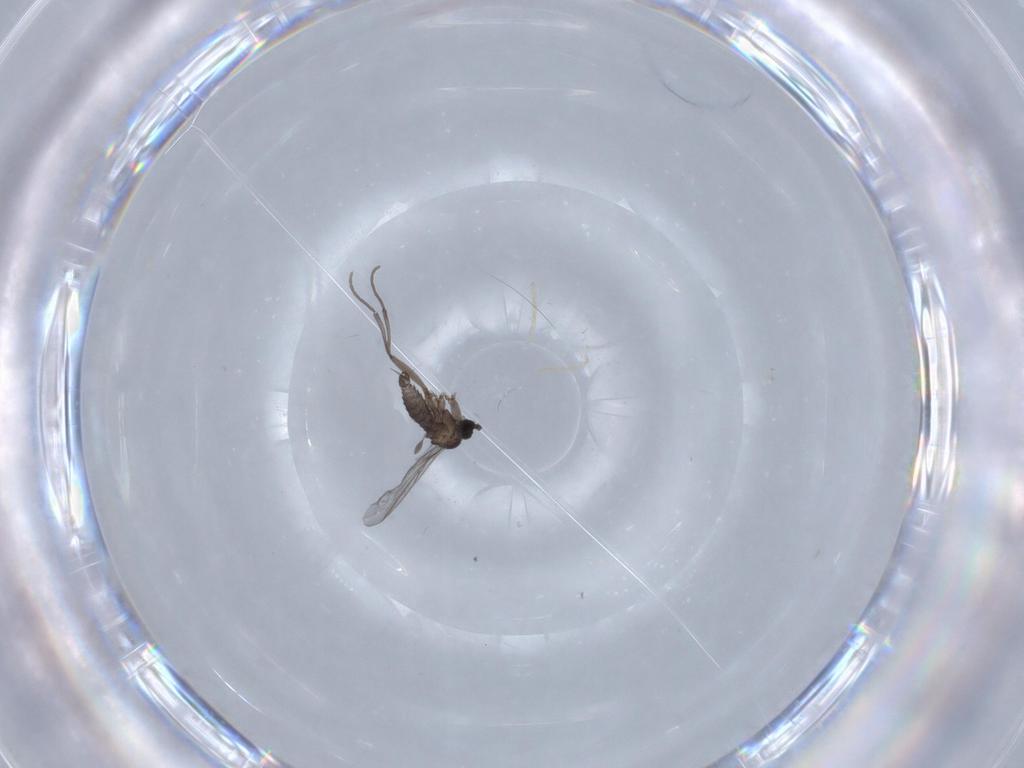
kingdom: Animalia
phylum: Arthropoda
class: Insecta
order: Diptera
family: Sciaridae
